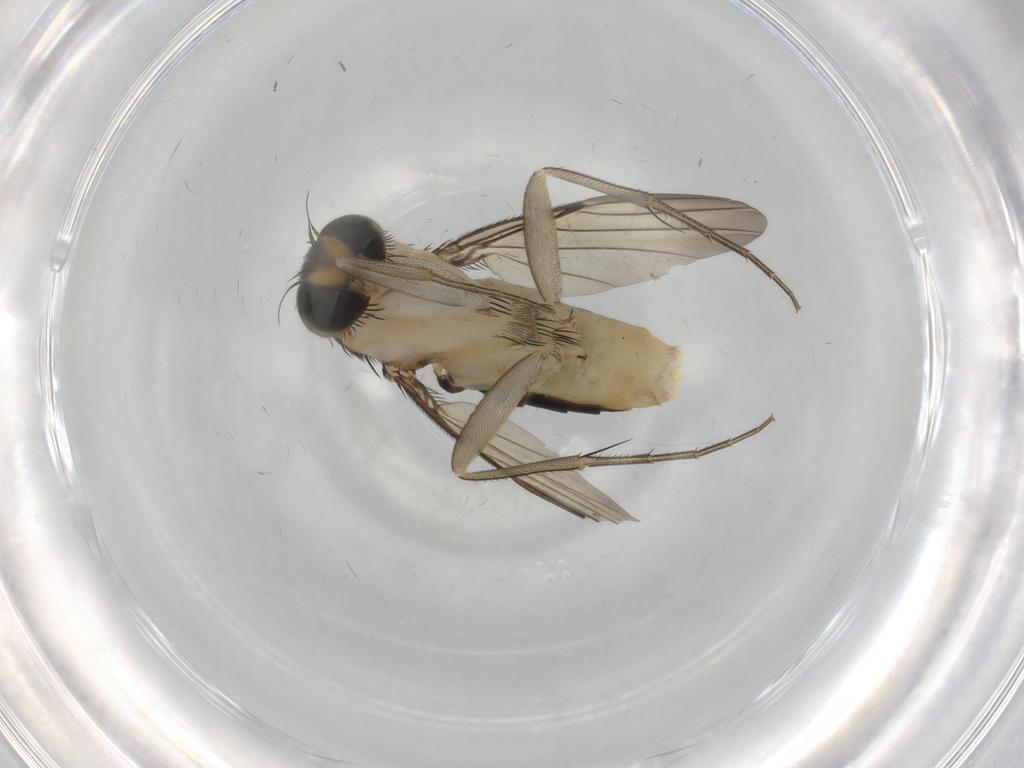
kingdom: Animalia
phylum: Arthropoda
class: Insecta
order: Diptera
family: Phoridae
